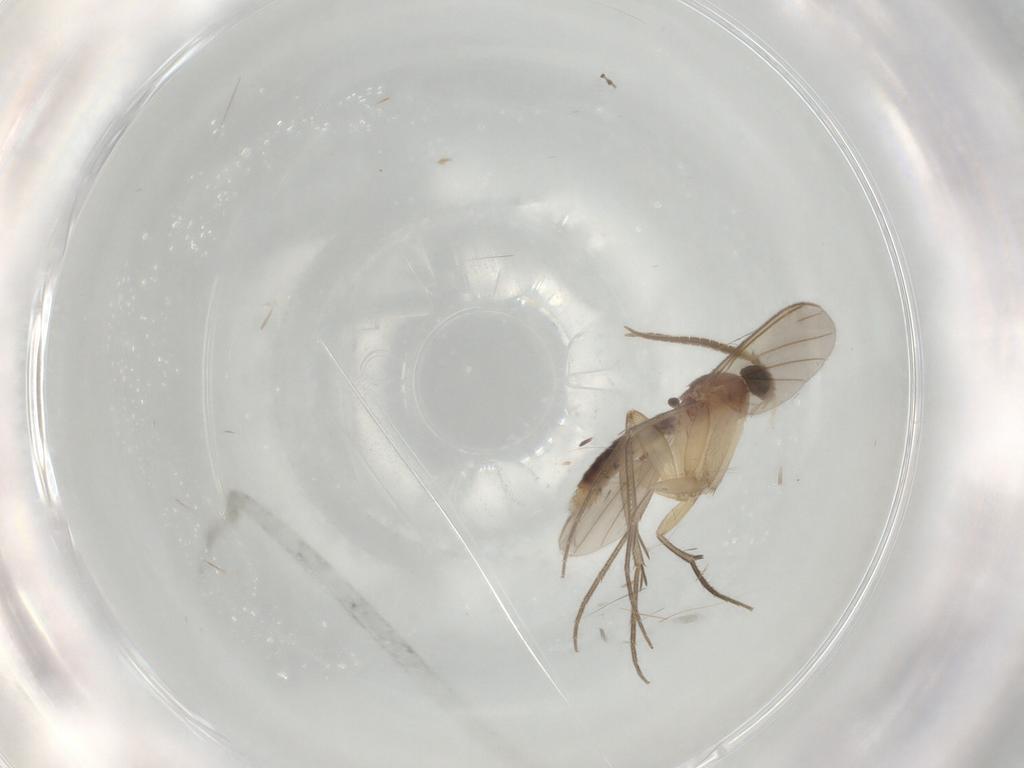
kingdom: Animalia
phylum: Arthropoda
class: Insecta
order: Diptera
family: Mycetophilidae
